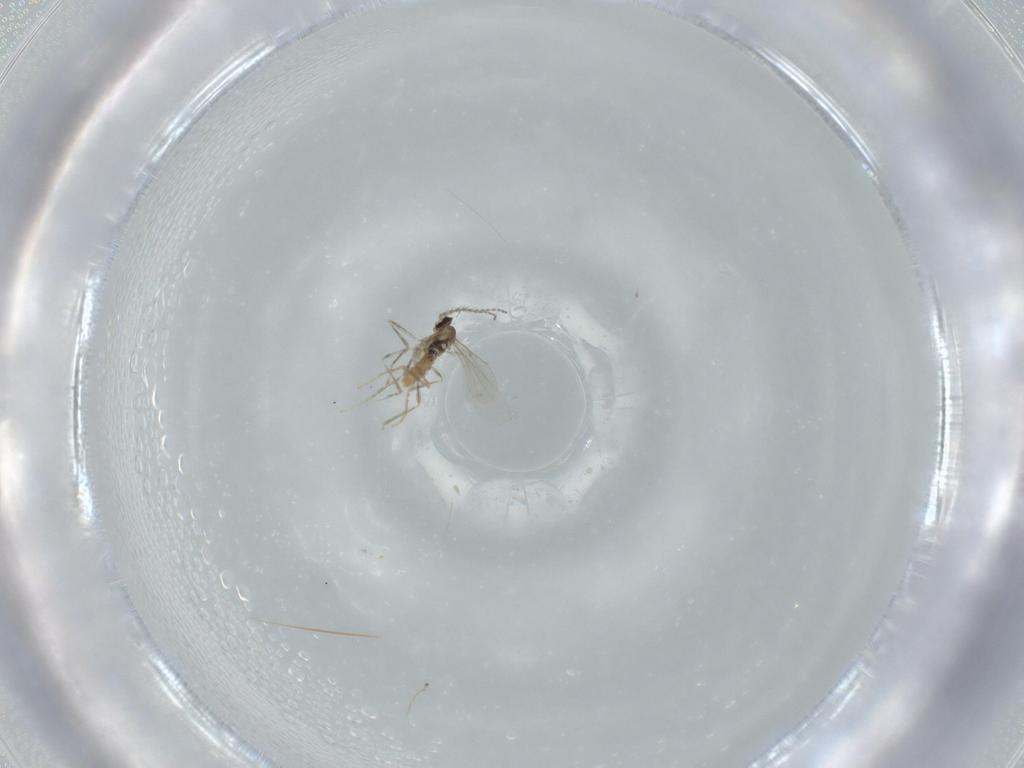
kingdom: Animalia
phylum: Arthropoda
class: Insecta
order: Diptera
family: Cecidomyiidae
